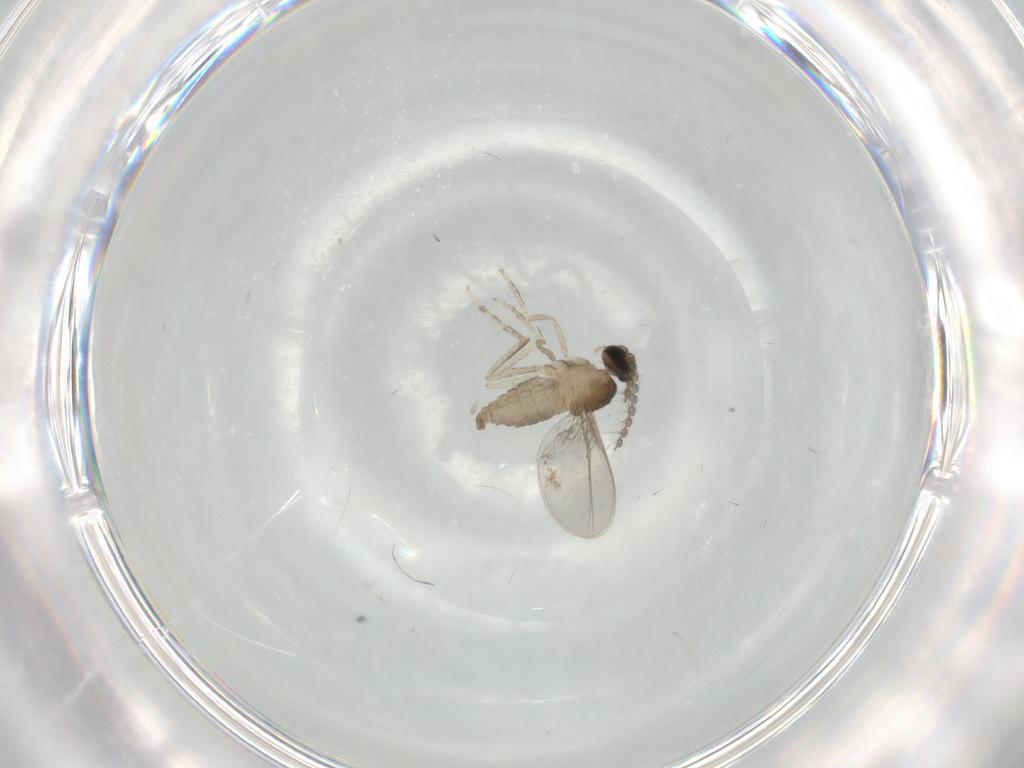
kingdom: Animalia
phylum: Arthropoda
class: Insecta
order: Diptera
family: Cecidomyiidae
